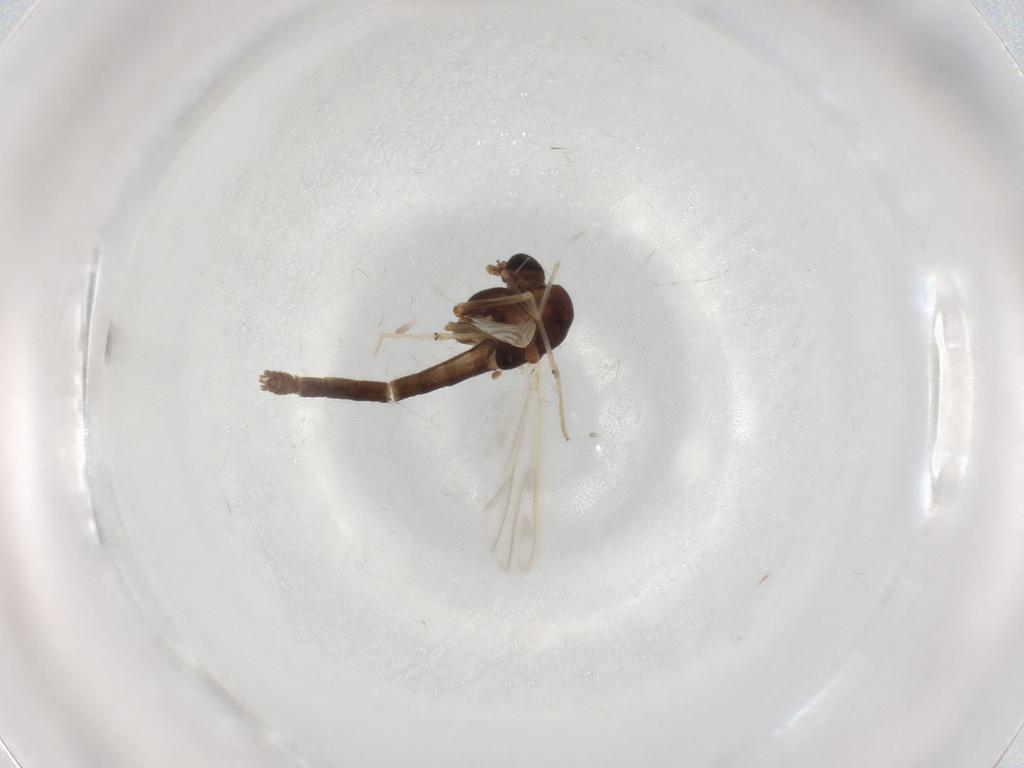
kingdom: Animalia
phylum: Arthropoda
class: Insecta
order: Diptera
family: Chironomidae
